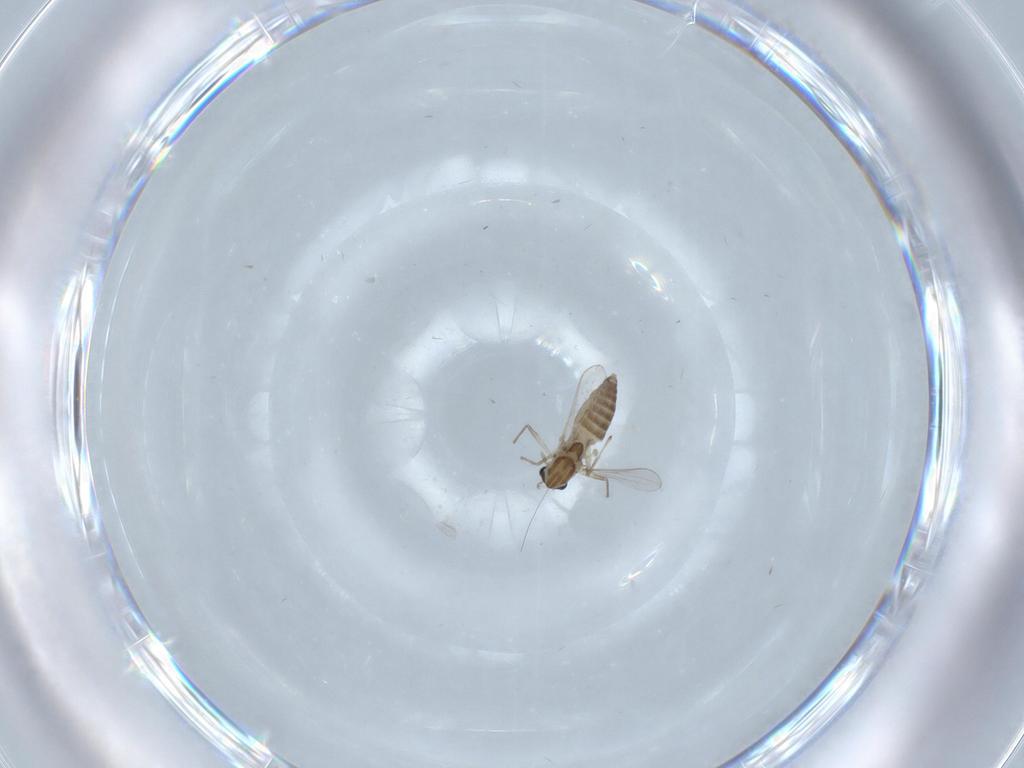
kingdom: Animalia
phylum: Arthropoda
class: Insecta
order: Diptera
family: Chironomidae
